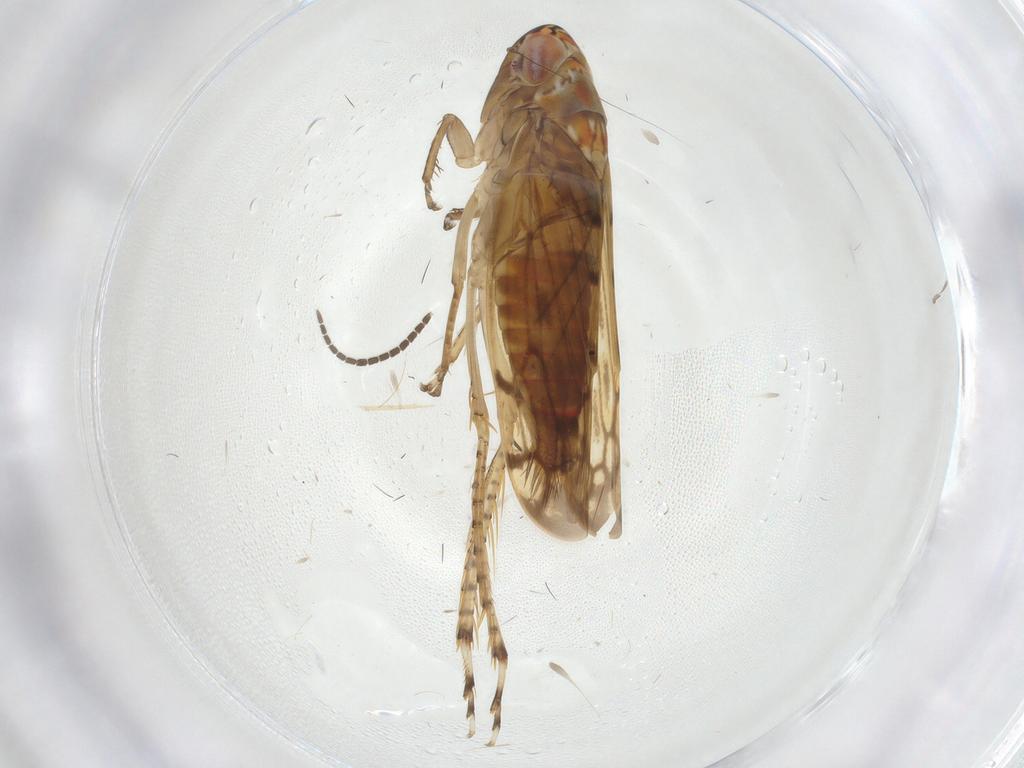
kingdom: Animalia
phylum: Arthropoda
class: Insecta
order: Hemiptera
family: Cicadellidae
